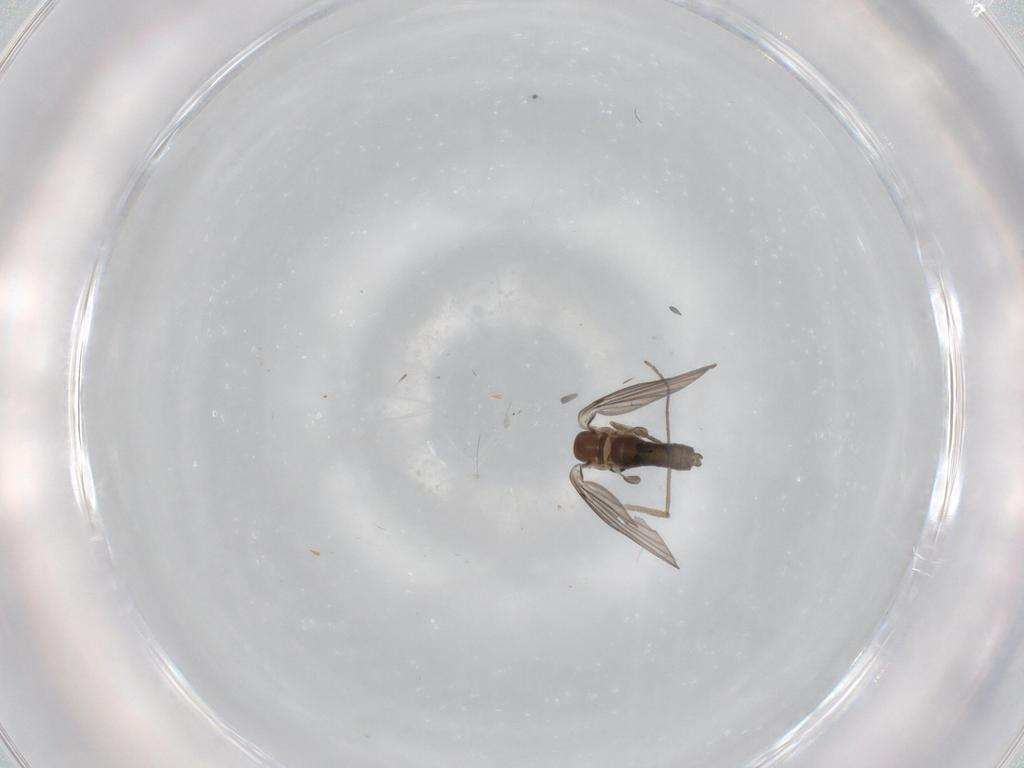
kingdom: Animalia
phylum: Arthropoda
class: Insecta
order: Diptera
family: Psychodidae
